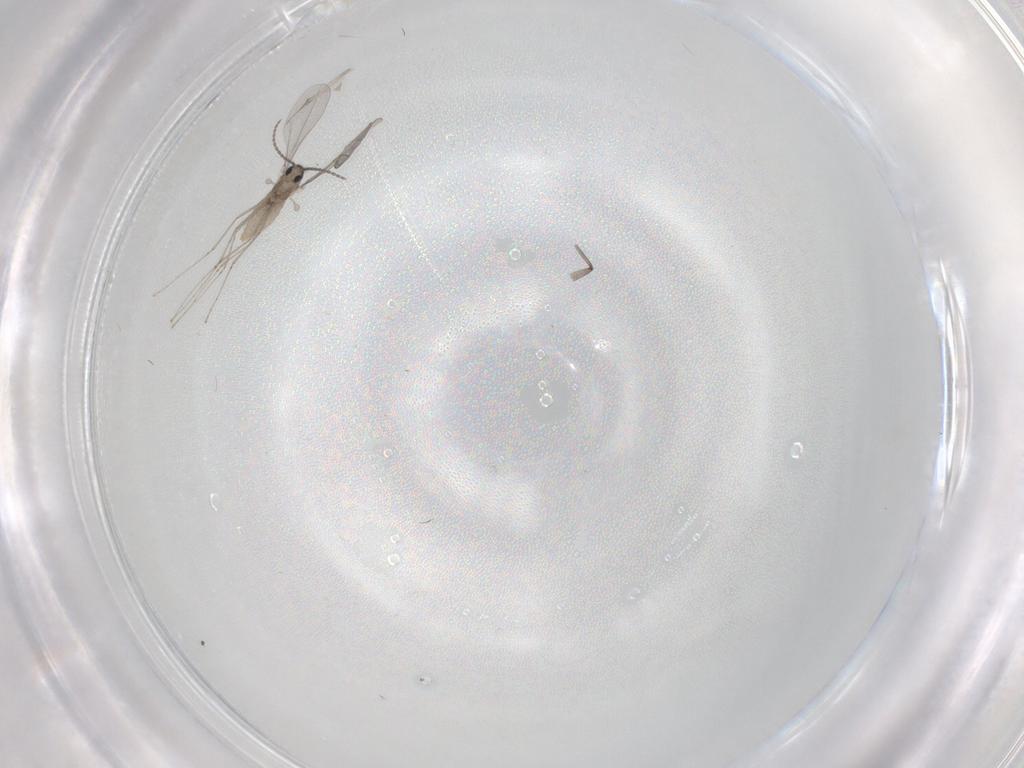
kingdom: Animalia
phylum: Arthropoda
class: Insecta
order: Diptera
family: Sciaridae
